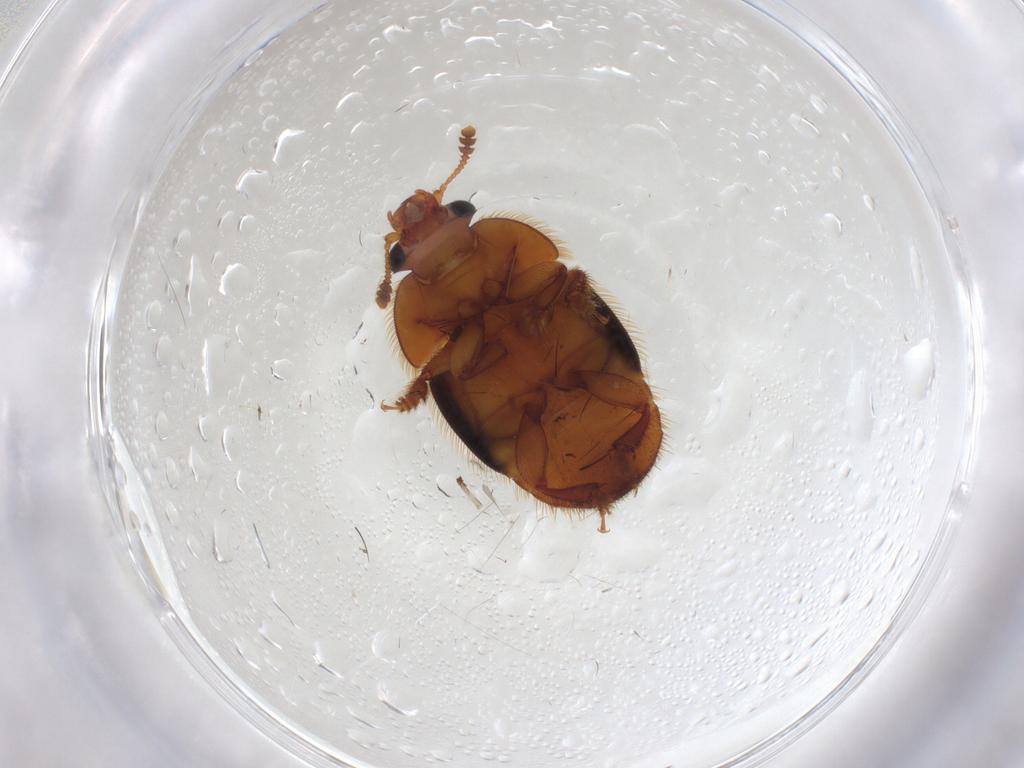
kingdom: Animalia
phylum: Arthropoda
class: Insecta
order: Coleoptera
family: Nitidulidae
